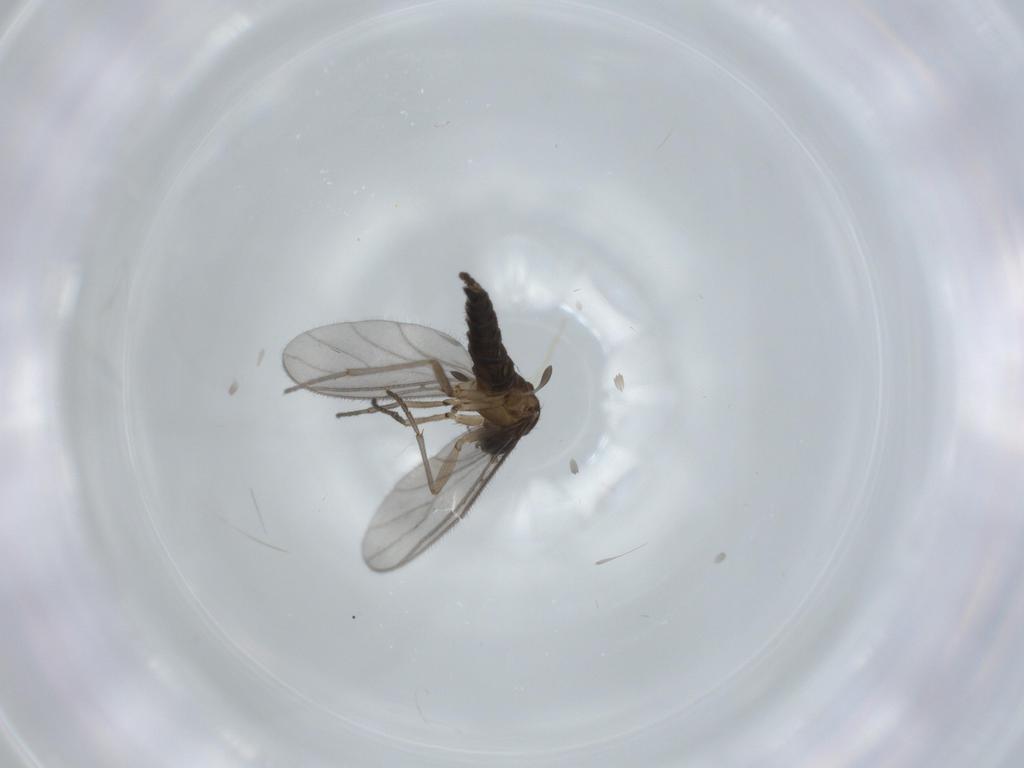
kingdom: Animalia
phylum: Arthropoda
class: Insecta
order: Diptera
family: Sciaridae
